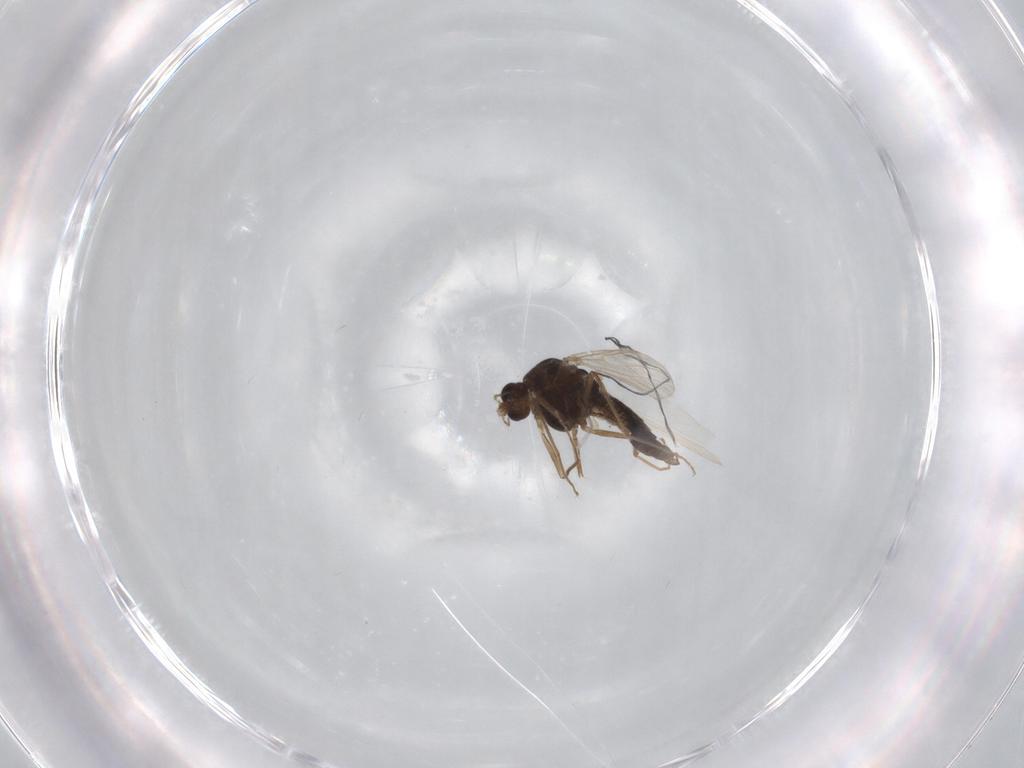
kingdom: Animalia
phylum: Arthropoda
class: Insecta
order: Diptera
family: Chironomidae
